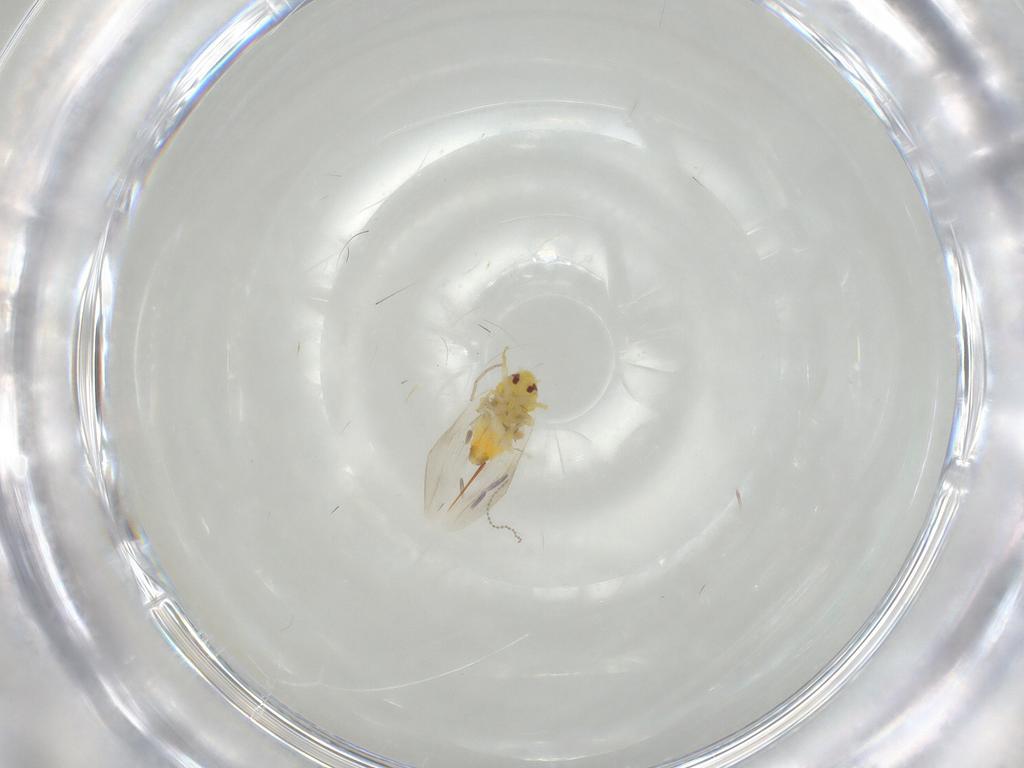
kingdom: Animalia
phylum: Arthropoda
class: Insecta
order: Hemiptera
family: Aleyrodidae
